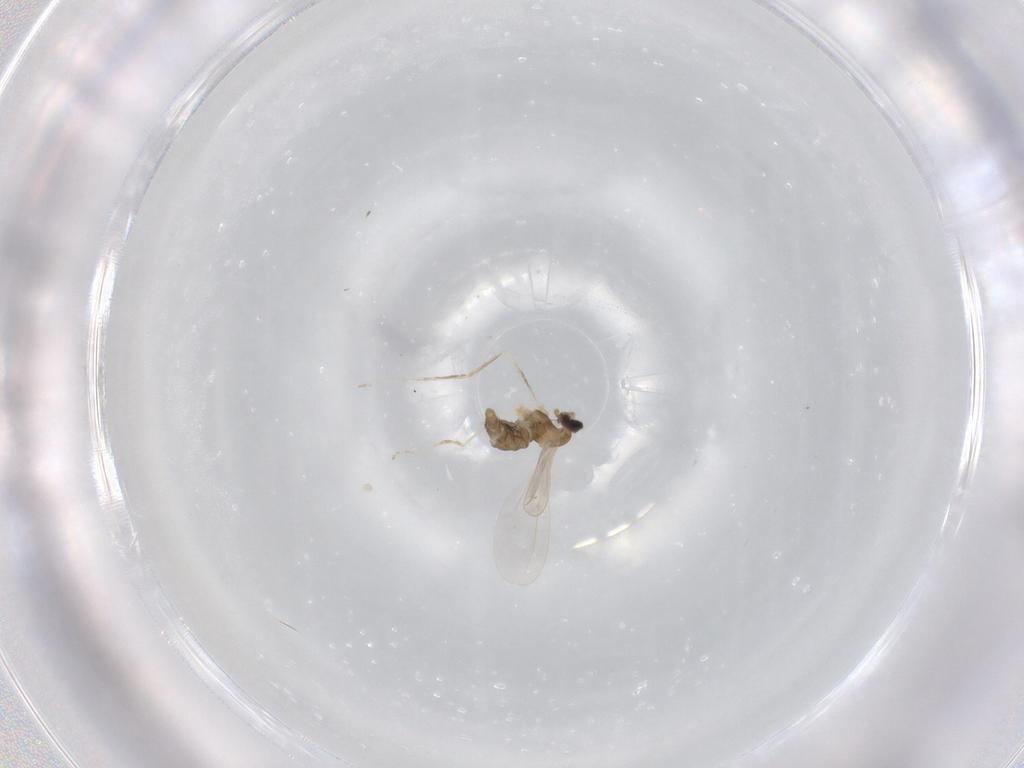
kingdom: Animalia
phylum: Arthropoda
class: Insecta
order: Diptera
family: Cecidomyiidae
